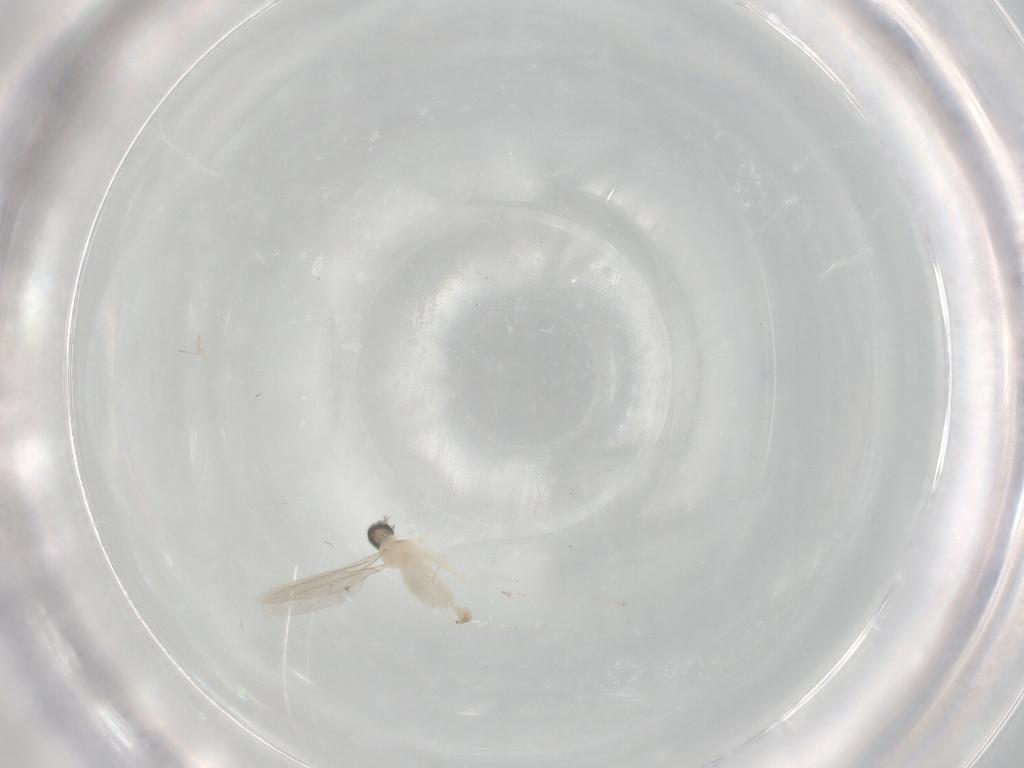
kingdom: Animalia
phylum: Arthropoda
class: Insecta
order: Diptera
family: Cecidomyiidae
